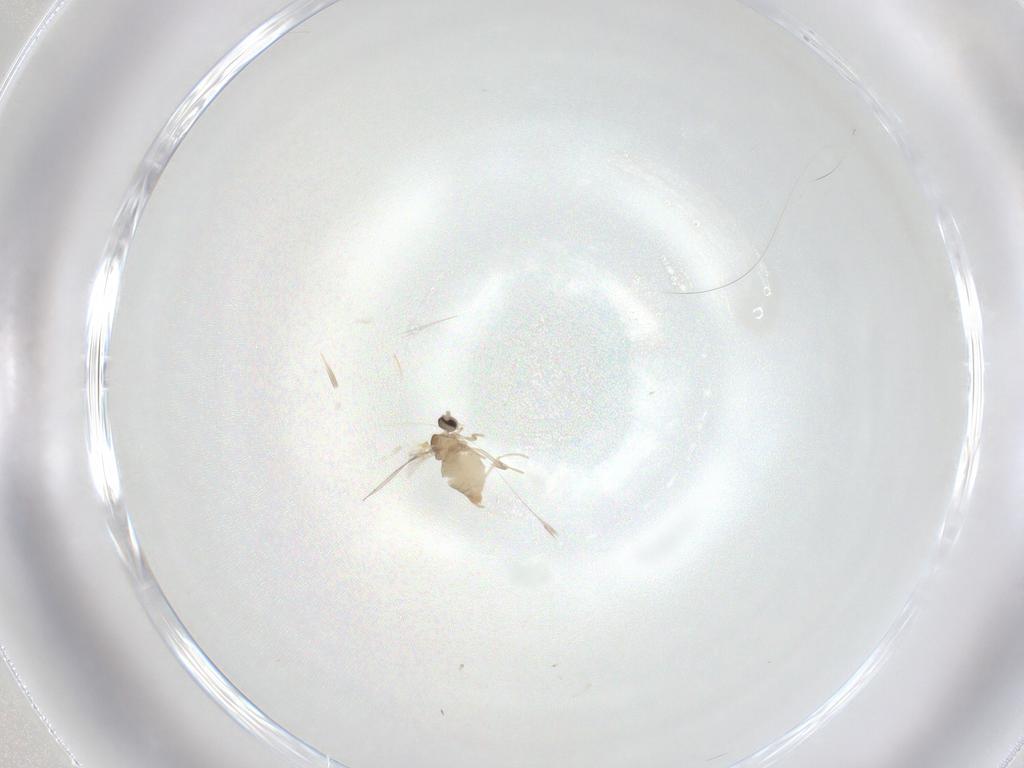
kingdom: Animalia
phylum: Arthropoda
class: Insecta
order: Diptera
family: Cecidomyiidae
